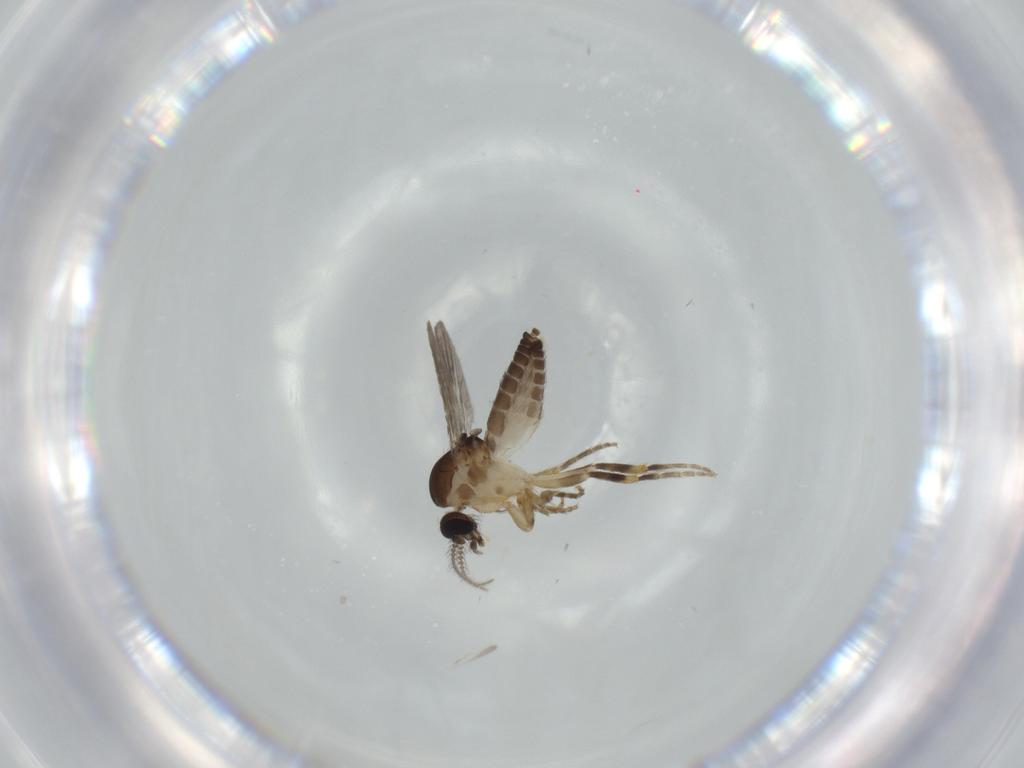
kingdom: Animalia
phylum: Arthropoda
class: Insecta
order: Diptera
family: Ceratopogonidae
